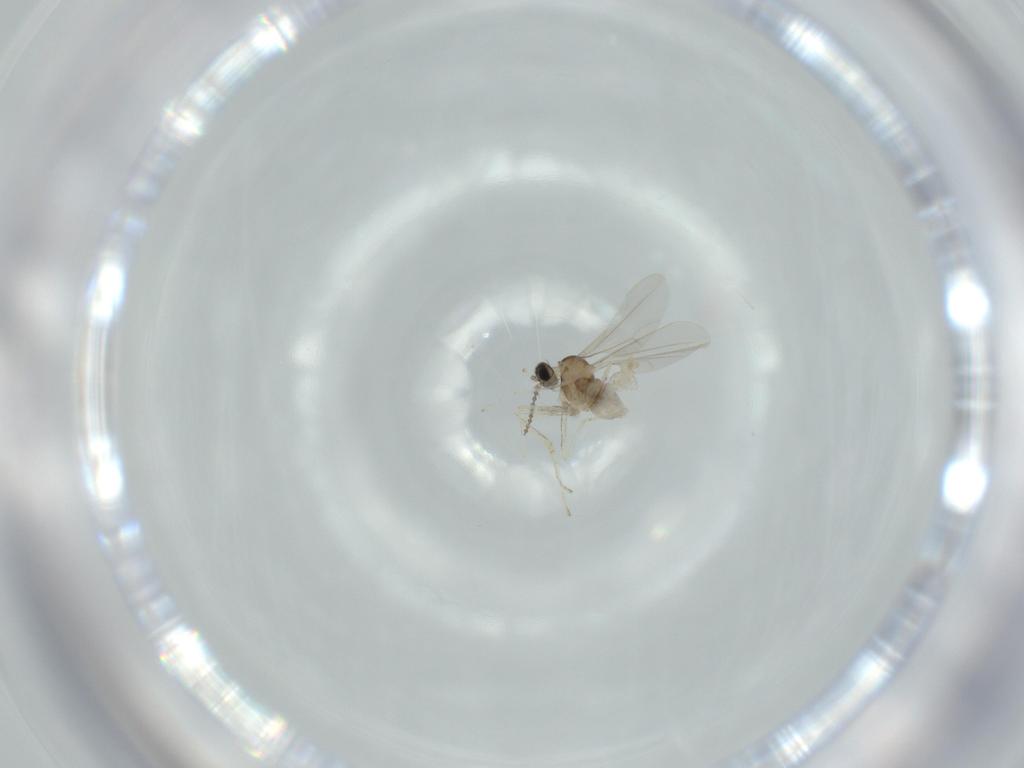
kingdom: Animalia
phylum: Arthropoda
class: Insecta
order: Diptera
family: Cecidomyiidae
